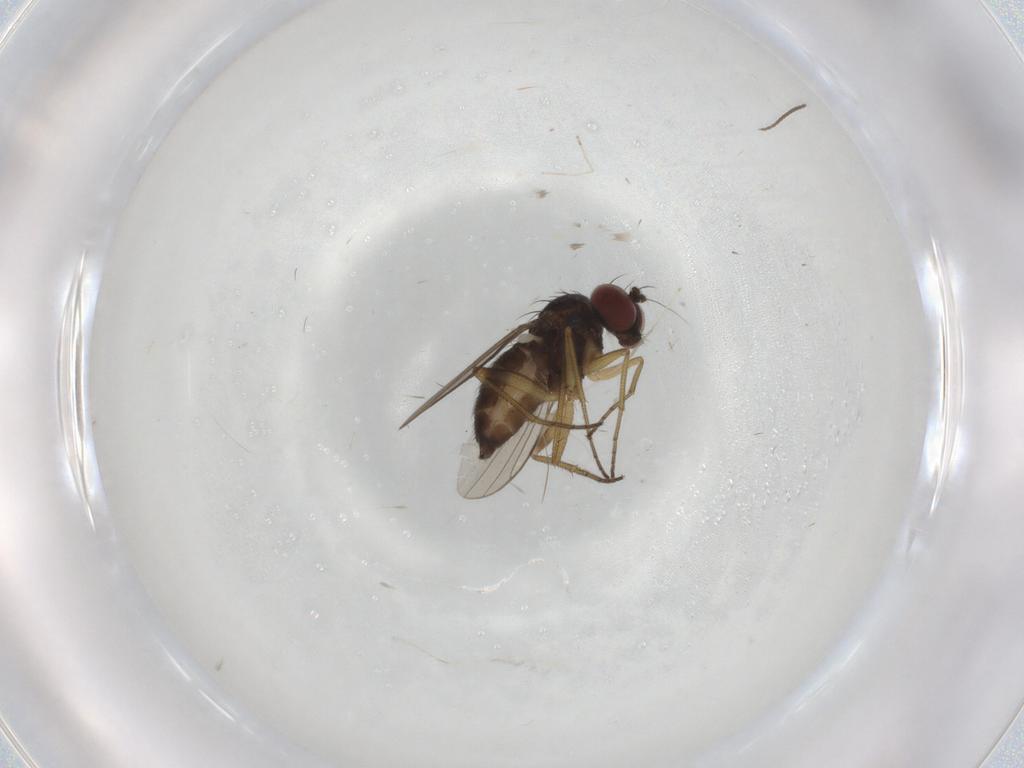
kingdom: Animalia
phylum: Arthropoda
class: Insecta
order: Diptera
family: Dolichopodidae
